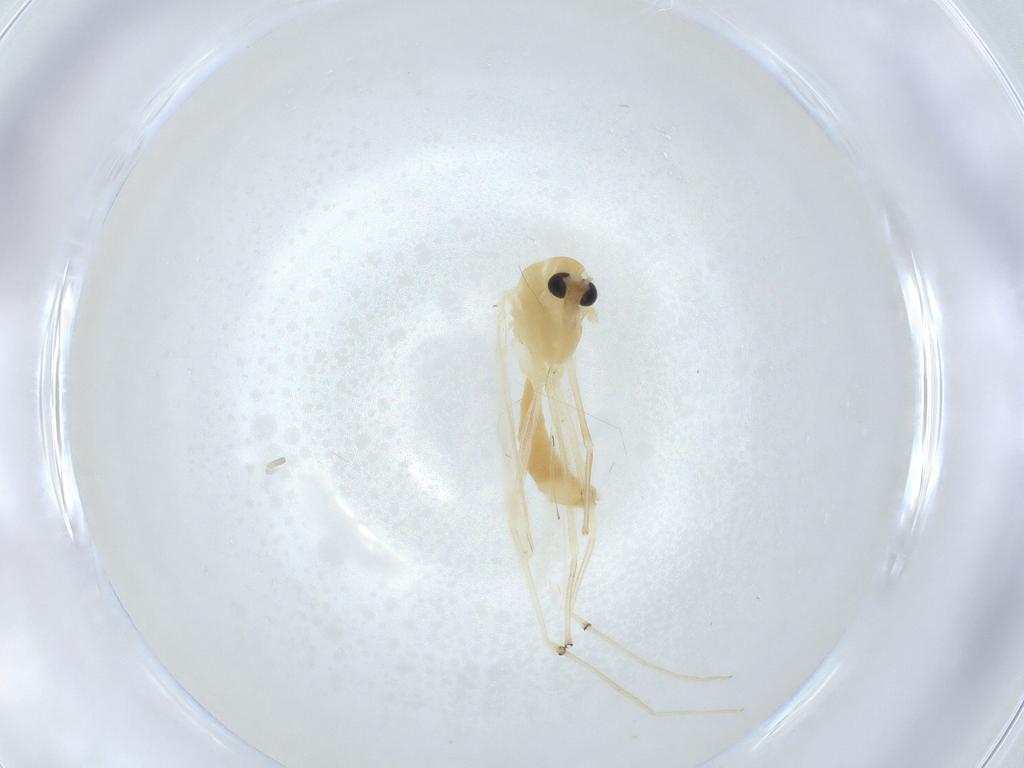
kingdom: Animalia
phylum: Arthropoda
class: Insecta
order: Diptera
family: Chironomidae
